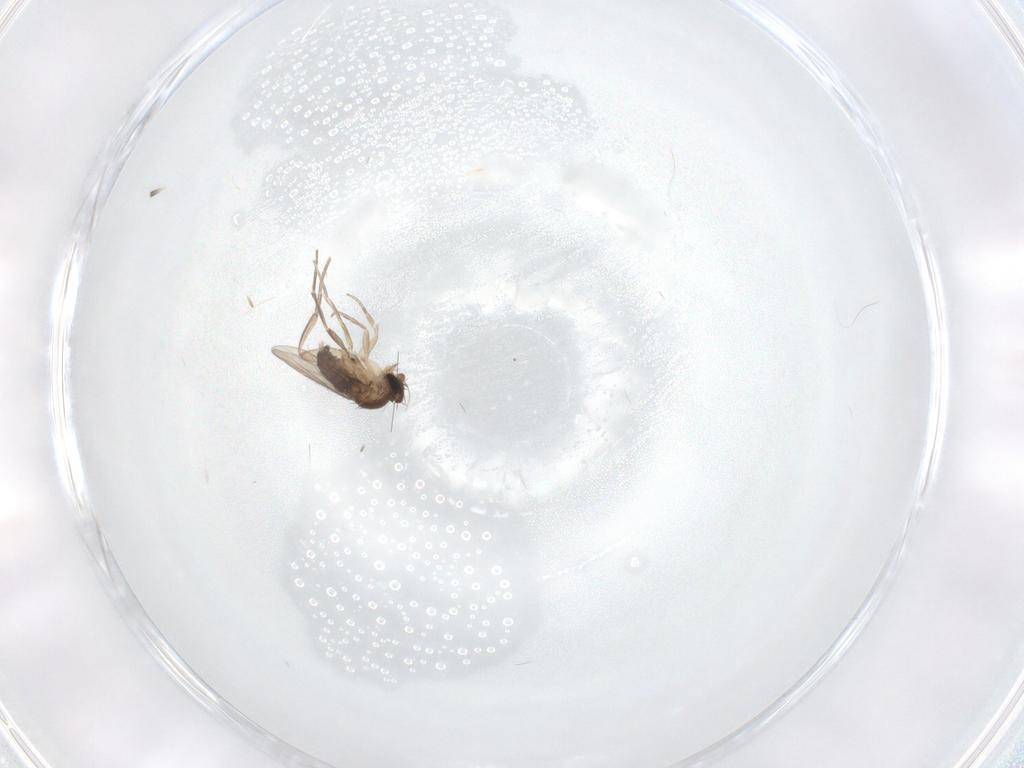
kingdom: Animalia
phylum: Arthropoda
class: Insecta
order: Diptera
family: Phoridae
